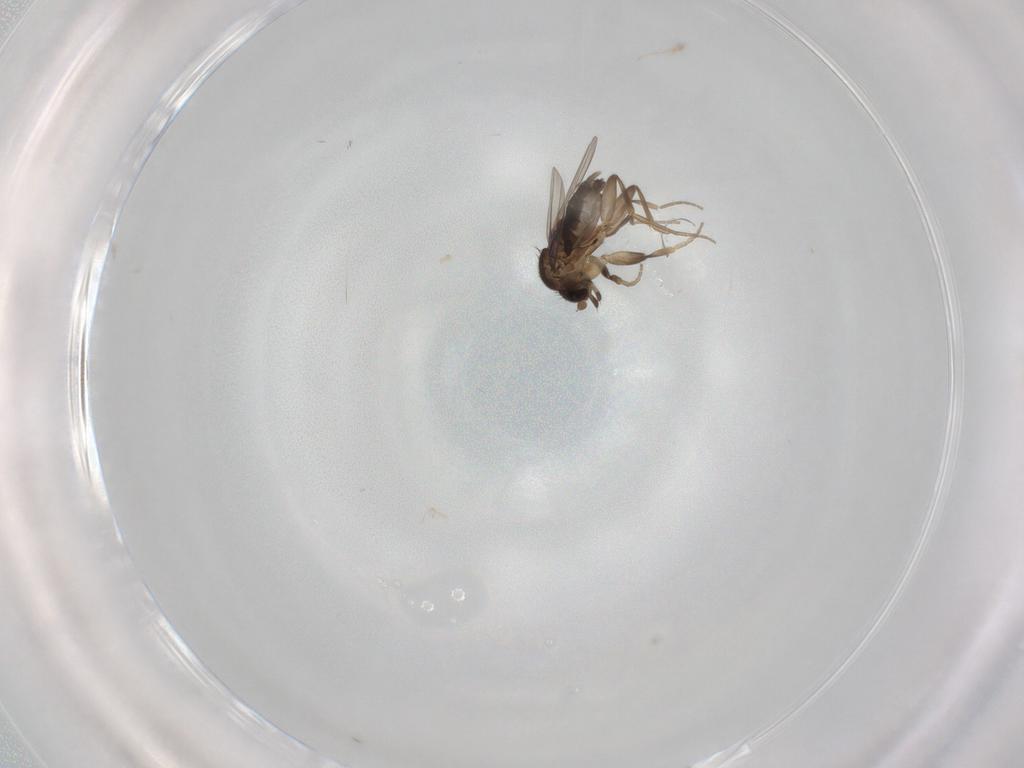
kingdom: Animalia
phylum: Arthropoda
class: Insecta
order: Diptera
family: Phoridae
